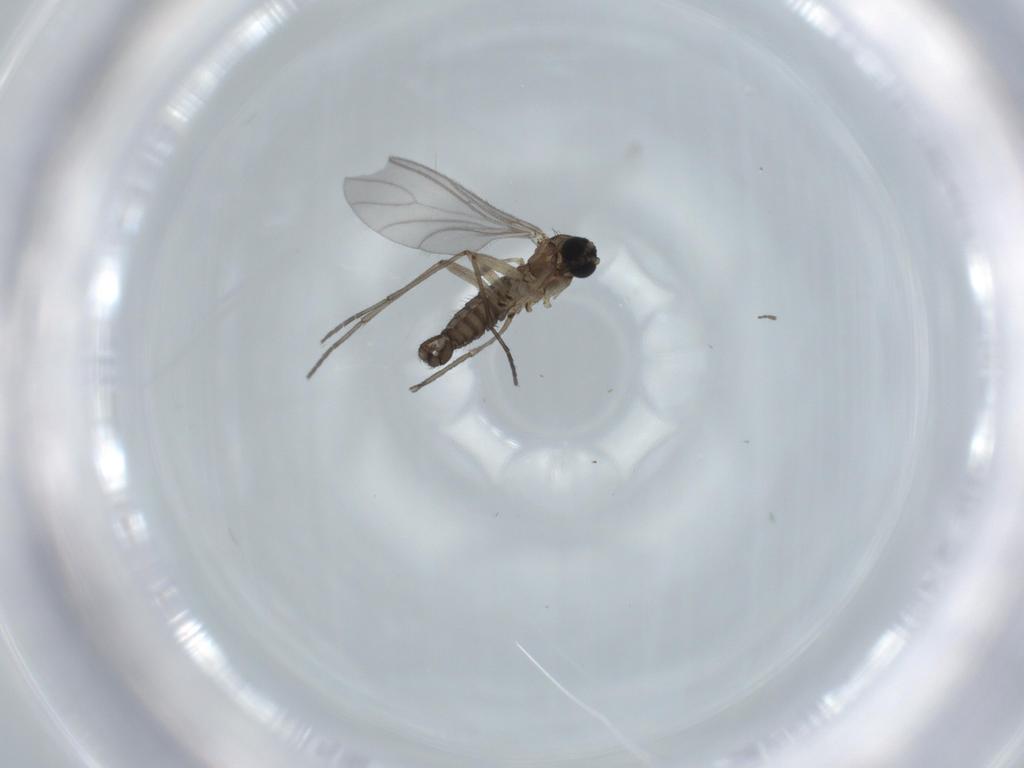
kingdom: Animalia
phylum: Arthropoda
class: Insecta
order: Diptera
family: Sciaridae
